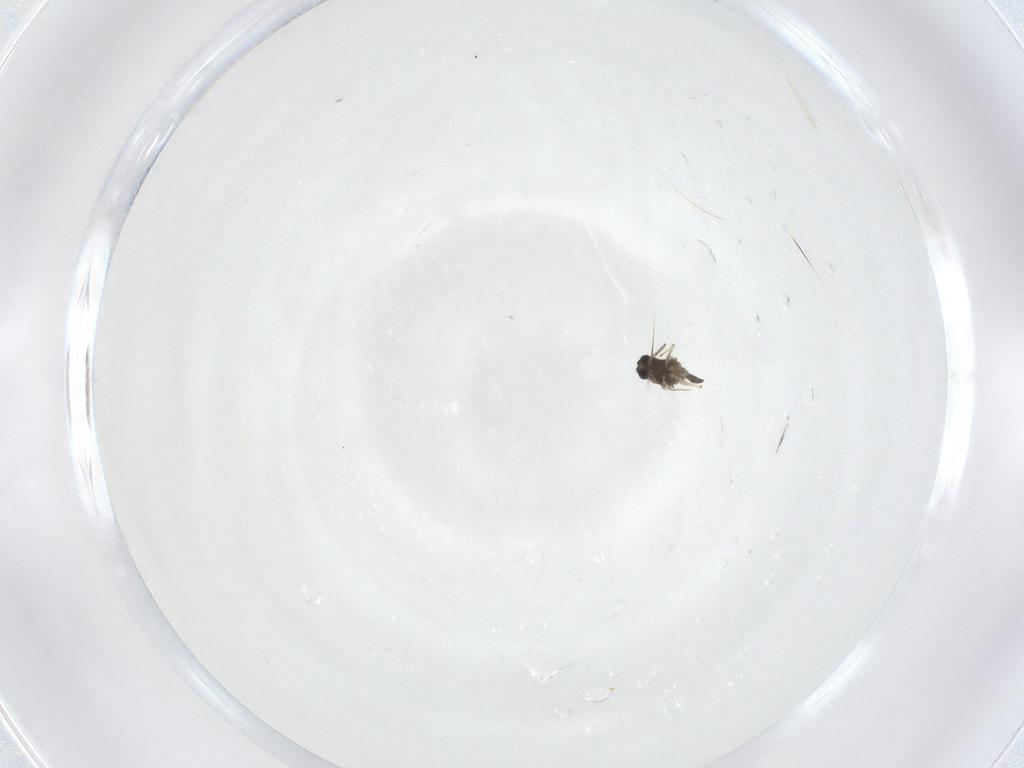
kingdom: Animalia
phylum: Arthropoda
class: Insecta
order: Diptera
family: Chironomidae
